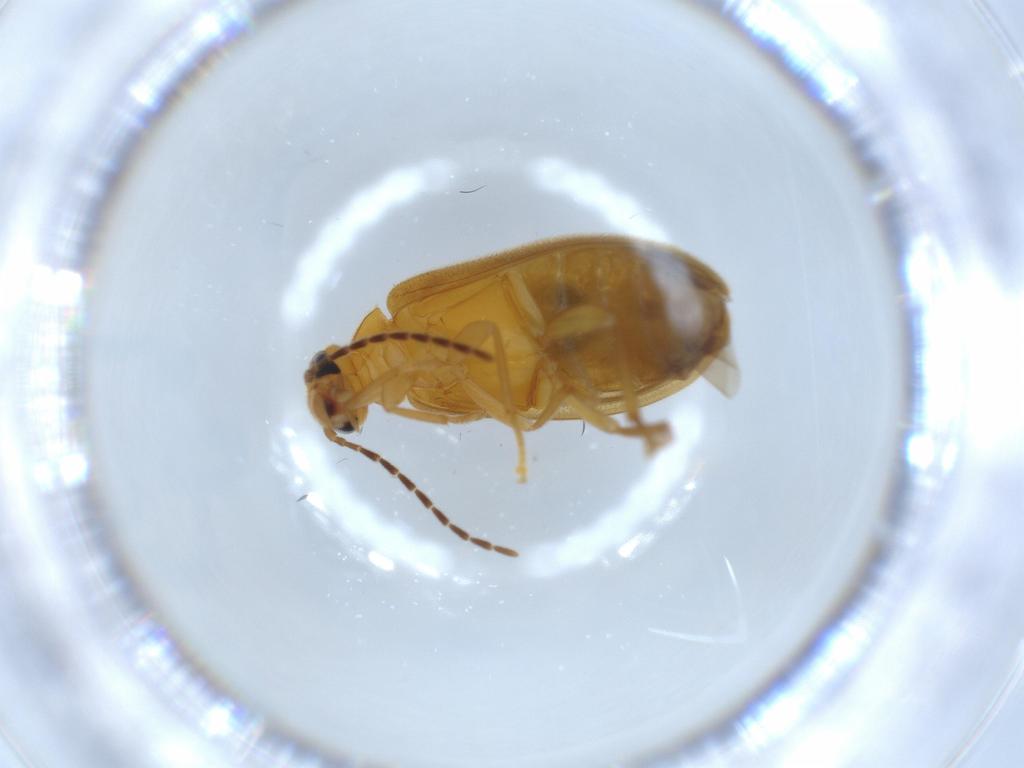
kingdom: Animalia
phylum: Arthropoda
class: Insecta
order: Coleoptera
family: Scraptiidae
